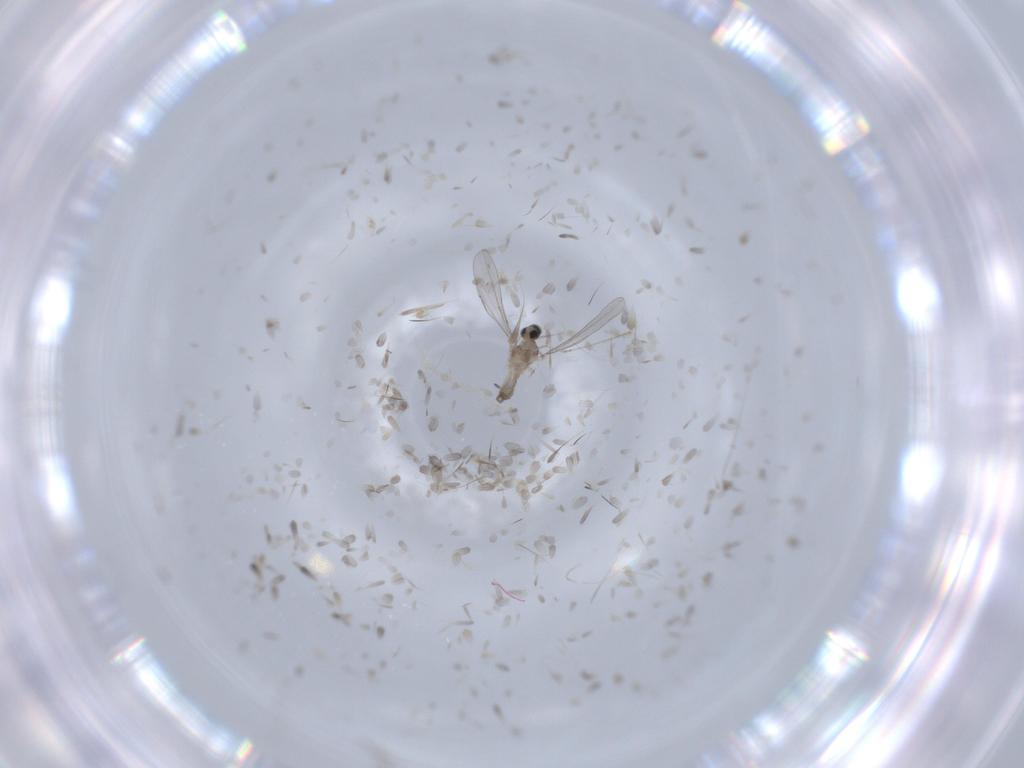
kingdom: Animalia
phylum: Arthropoda
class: Insecta
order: Diptera
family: Cecidomyiidae
